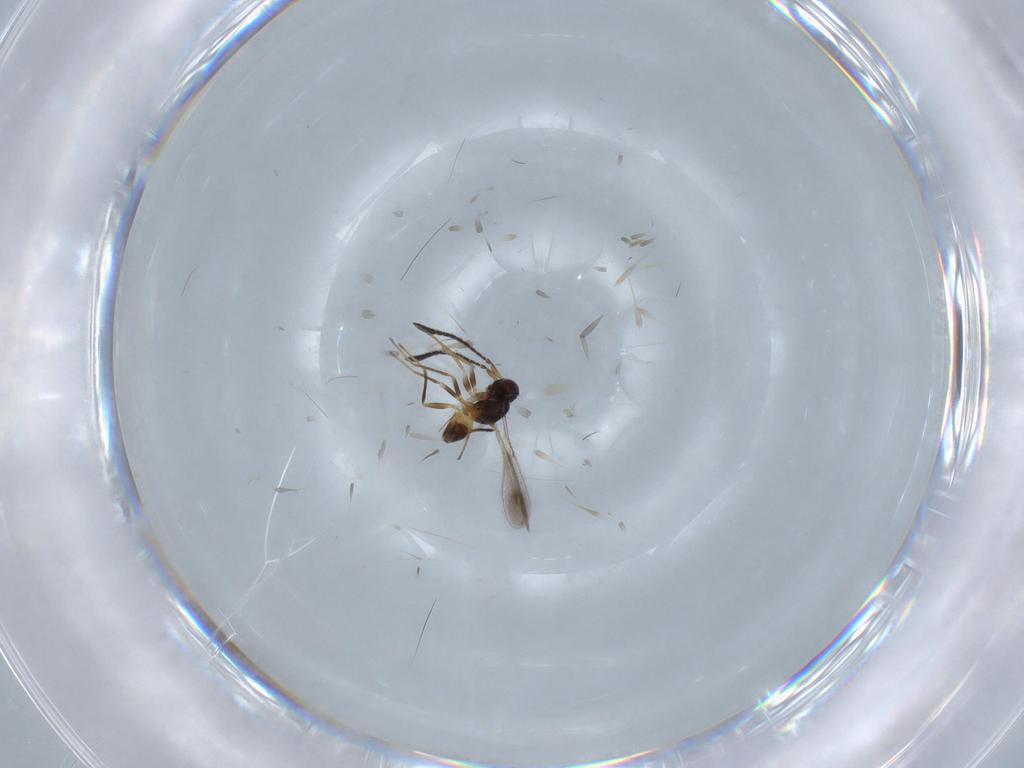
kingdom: Animalia
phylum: Arthropoda
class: Insecta
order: Hymenoptera
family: Mymaridae
